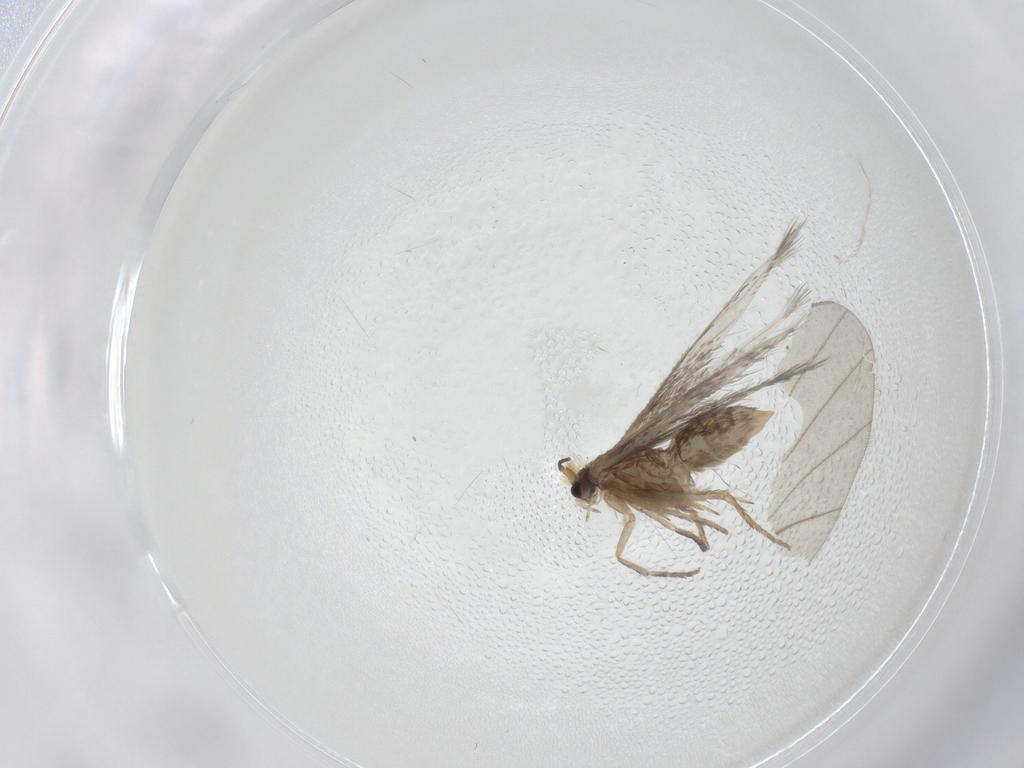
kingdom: Animalia
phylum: Arthropoda
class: Insecta
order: Lepidoptera
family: Nepticulidae
